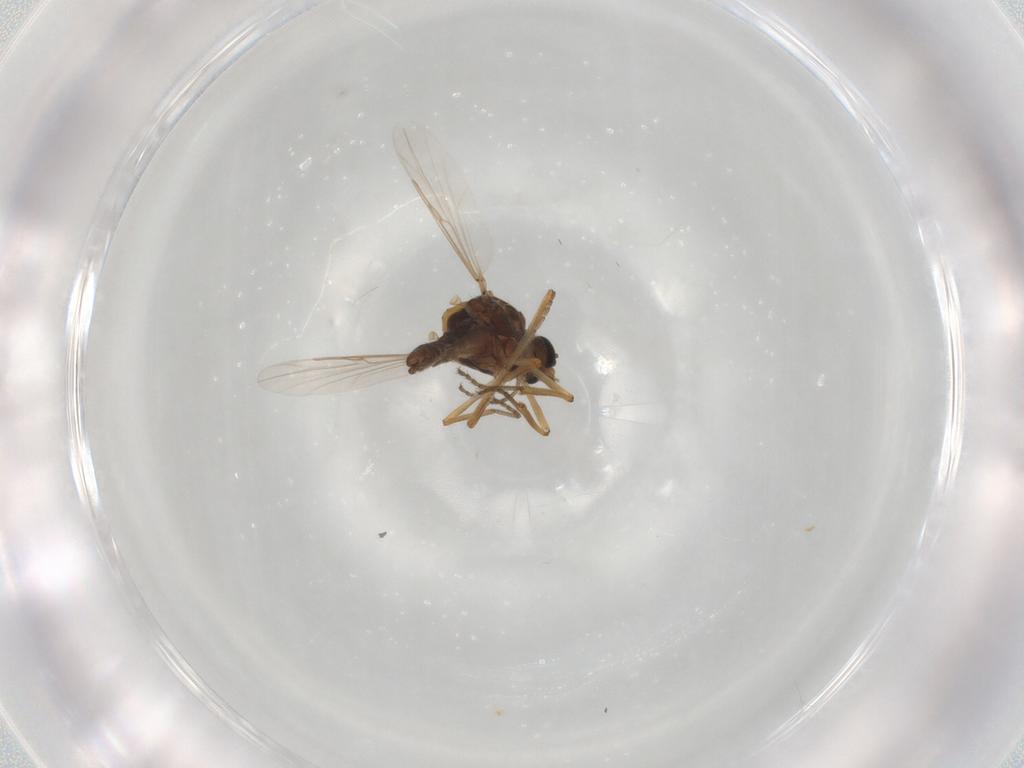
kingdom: Animalia
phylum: Arthropoda
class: Insecta
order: Diptera
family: Ceratopogonidae
